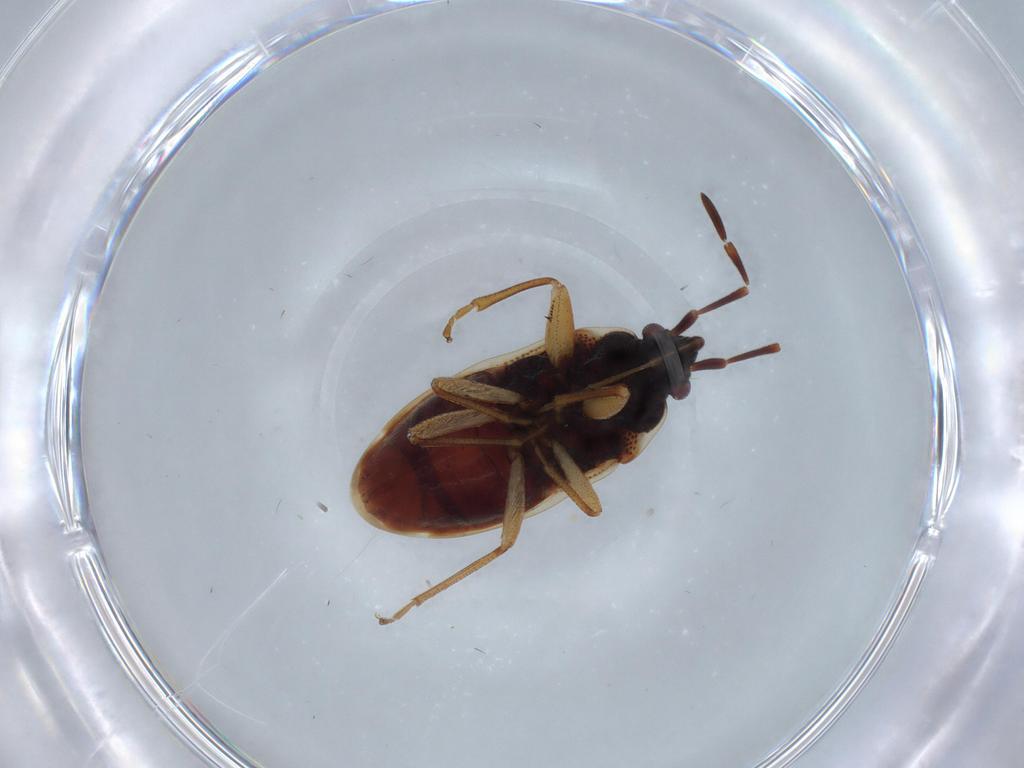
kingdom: Animalia
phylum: Arthropoda
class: Insecta
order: Hemiptera
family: Rhyparochromidae
